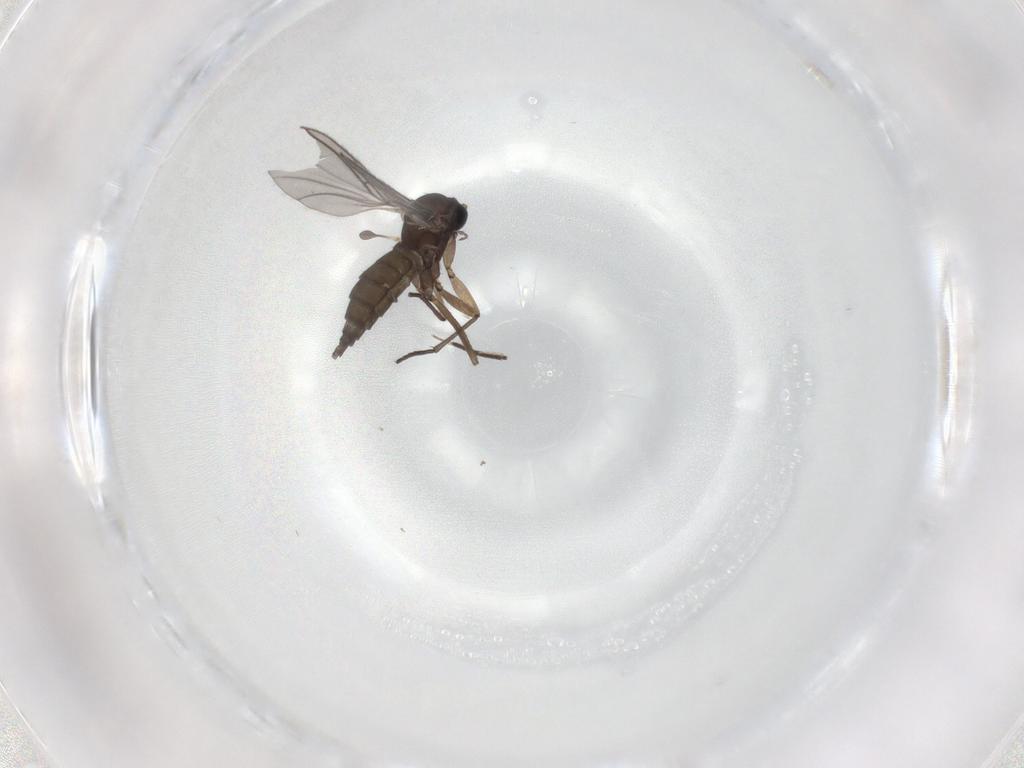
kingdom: Animalia
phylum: Arthropoda
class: Insecta
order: Diptera
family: Sciaridae
